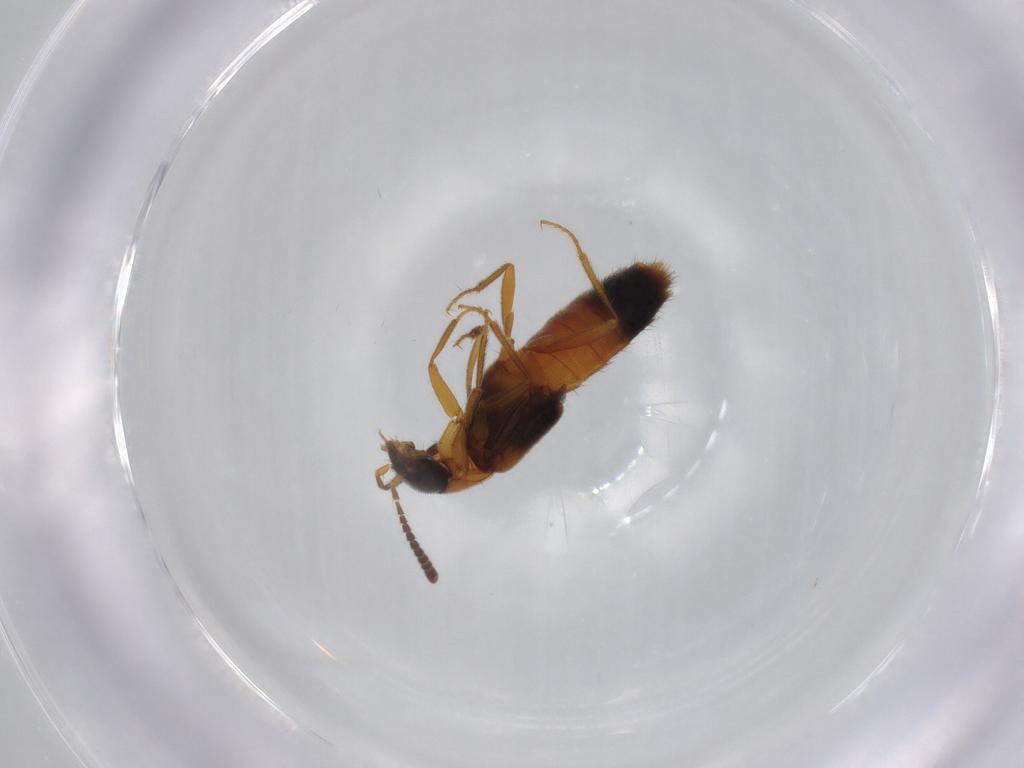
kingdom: Animalia
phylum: Arthropoda
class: Insecta
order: Coleoptera
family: Staphylinidae
